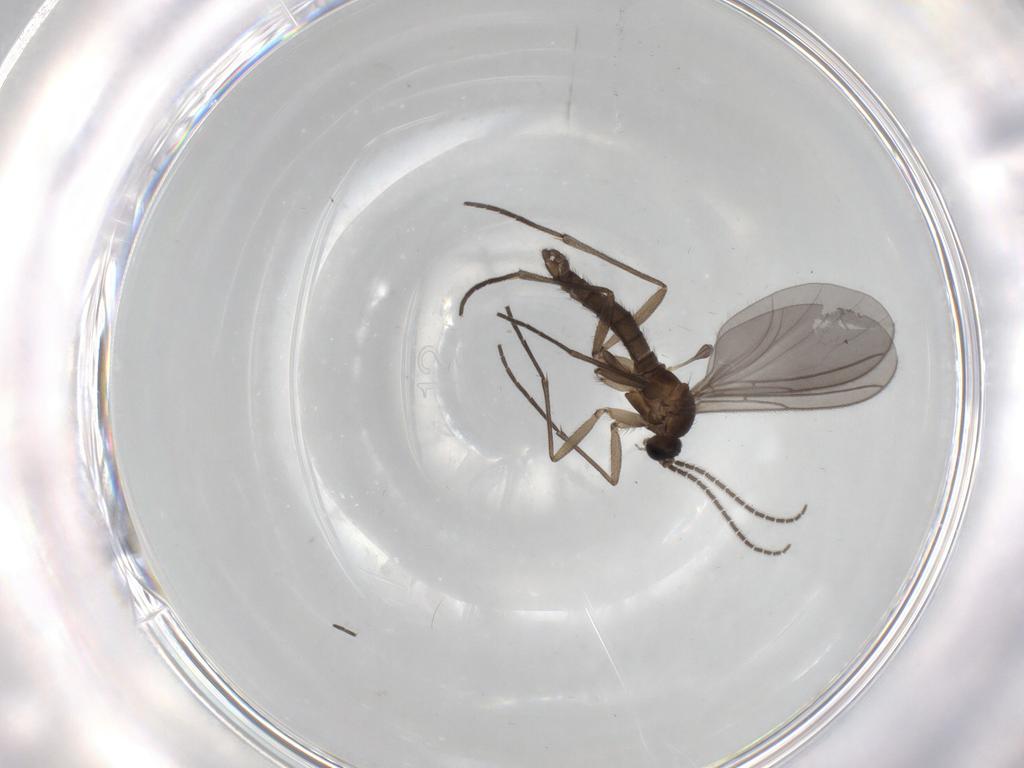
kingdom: Animalia
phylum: Arthropoda
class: Insecta
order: Diptera
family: Sciaridae
